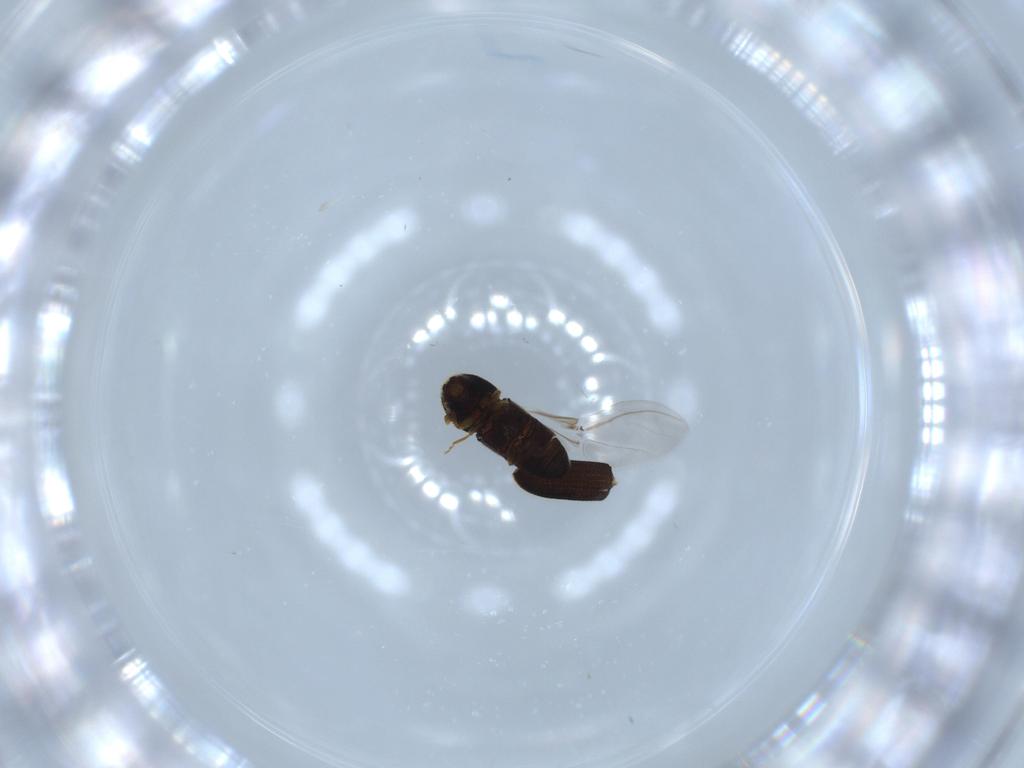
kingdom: Animalia
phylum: Arthropoda
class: Insecta
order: Coleoptera
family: Curculionidae
